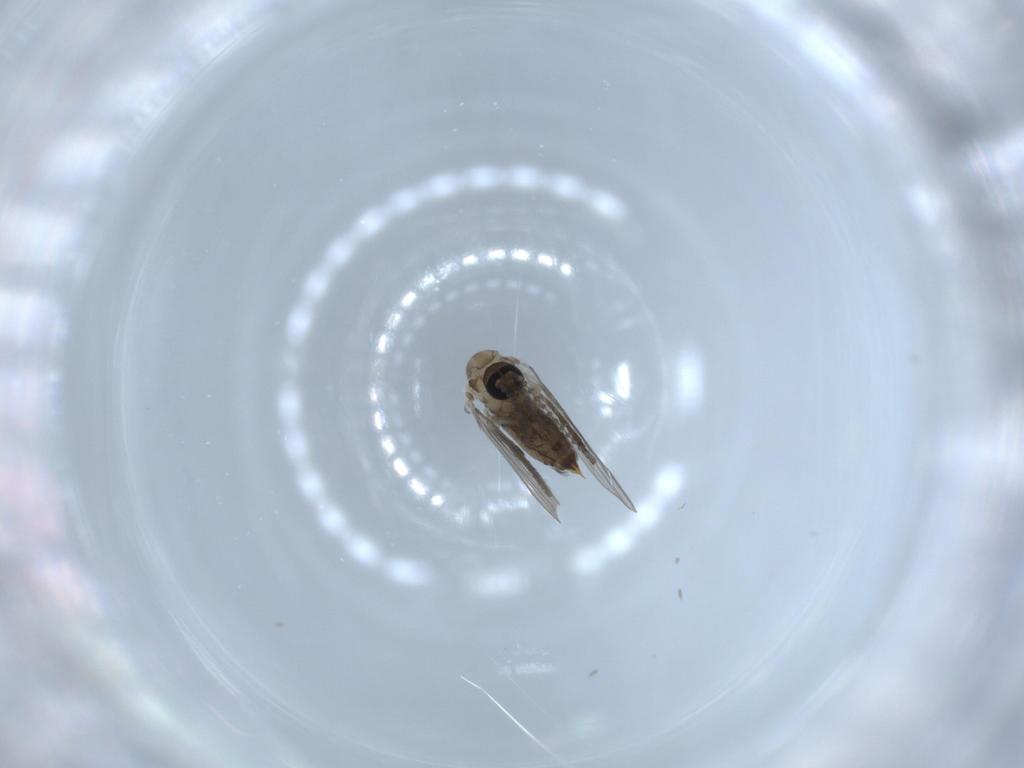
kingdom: Animalia
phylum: Arthropoda
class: Insecta
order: Diptera
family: Psychodidae
